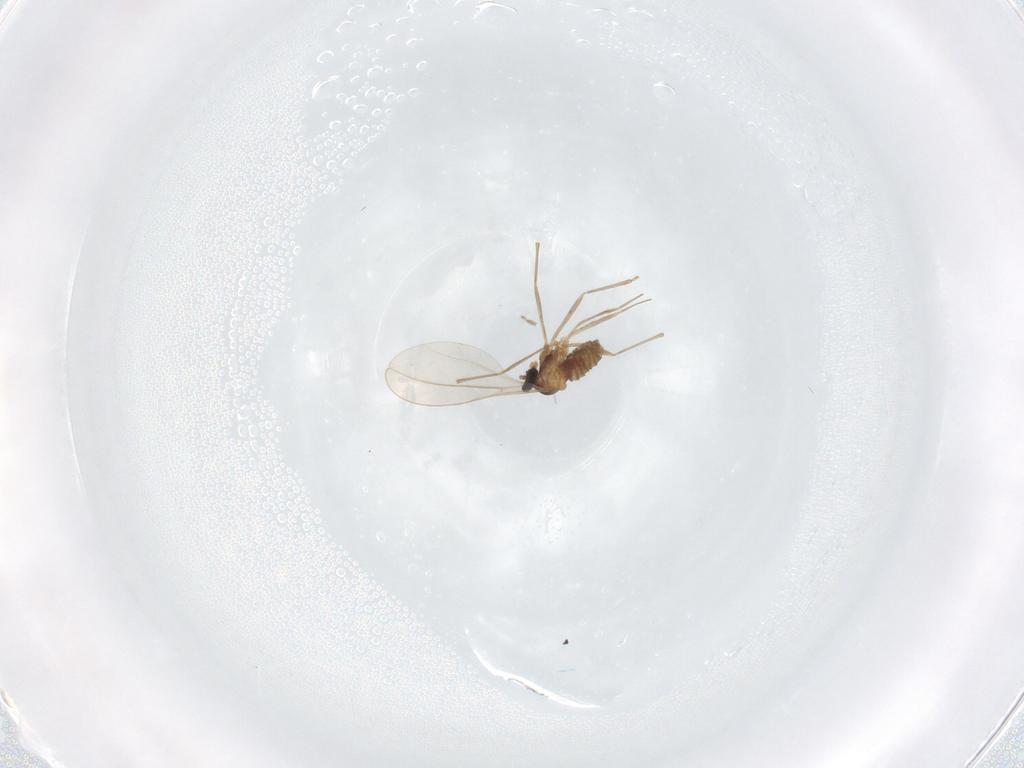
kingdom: Animalia
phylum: Arthropoda
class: Insecta
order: Diptera
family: Cecidomyiidae
